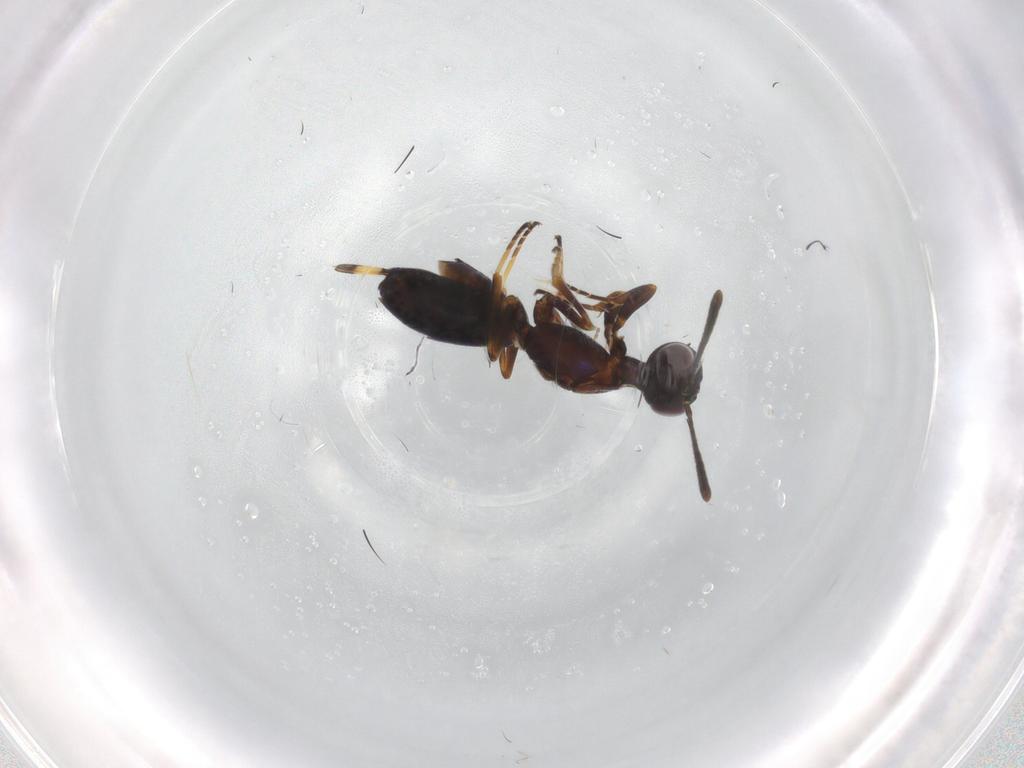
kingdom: Animalia
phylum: Arthropoda
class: Insecta
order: Hymenoptera
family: Eupelmidae
